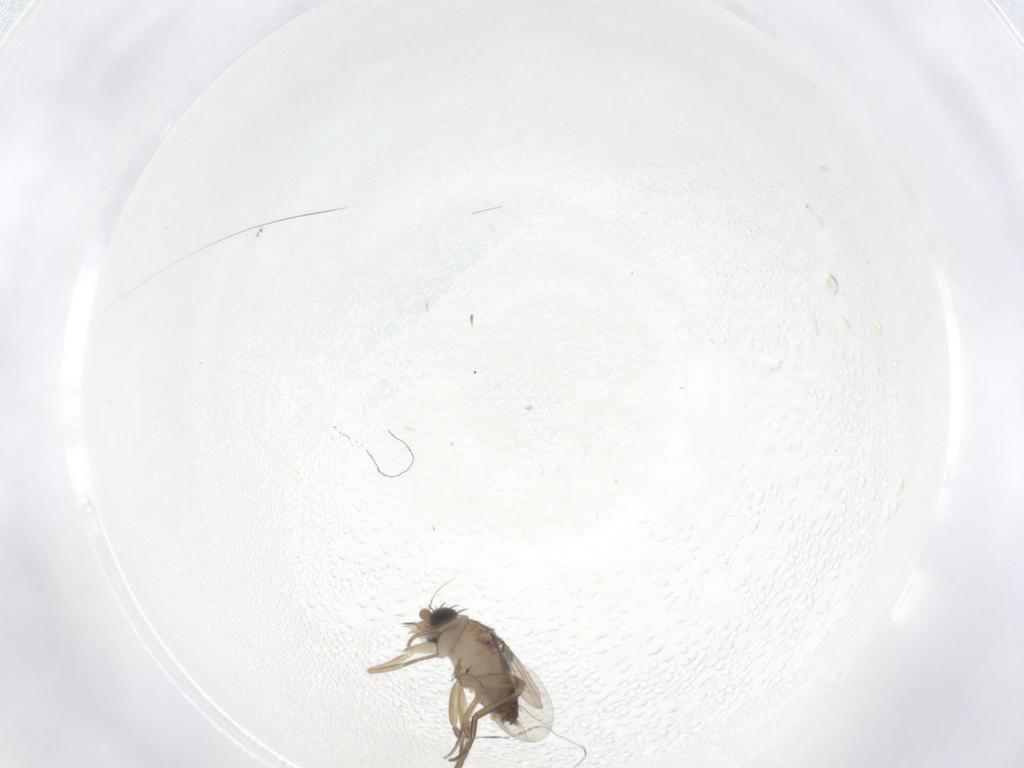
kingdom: Animalia
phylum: Arthropoda
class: Insecta
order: Diptera
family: Phoridae
